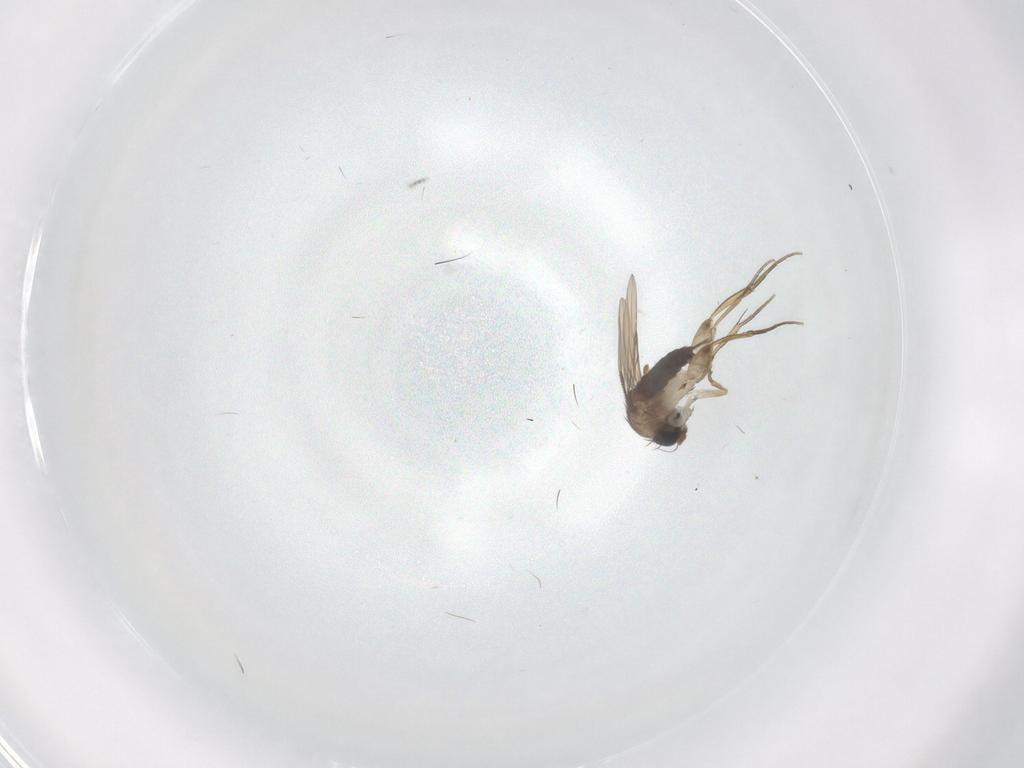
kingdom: Animalia
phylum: Arthropoda
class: Insecta
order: Diptera
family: Phoridae
